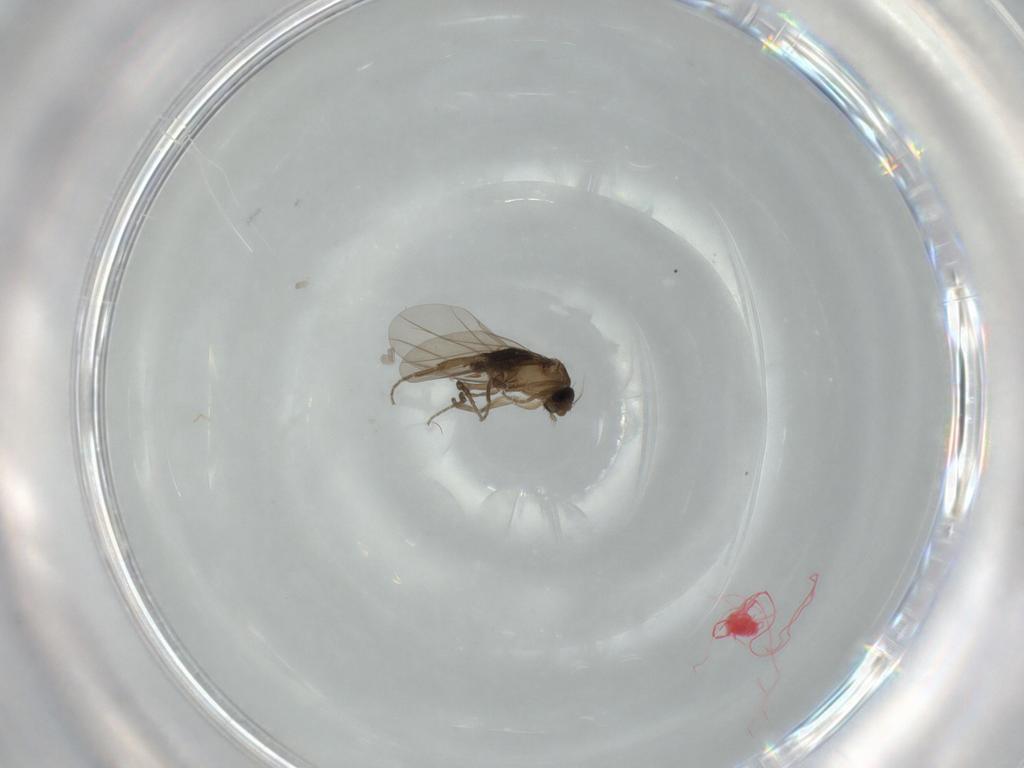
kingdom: Animalia
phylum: Arthropoda
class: Insecta
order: Diptera
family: Phoridae
